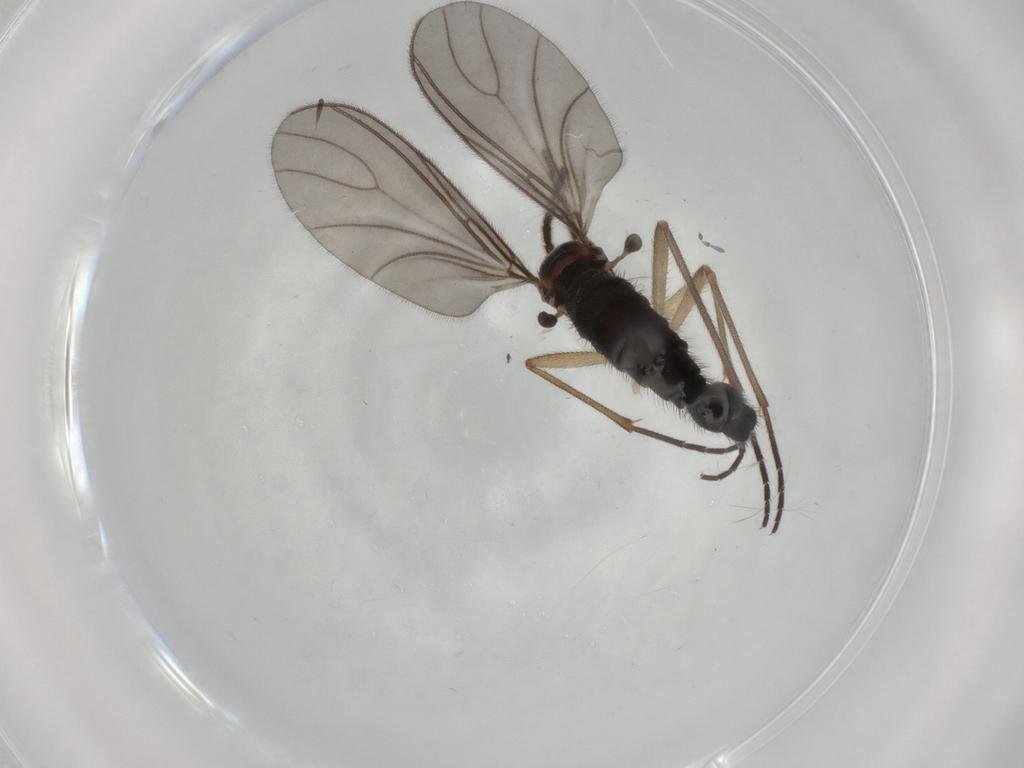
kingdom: Animalia
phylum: Arthropoda
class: Insecta
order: Diptera
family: Sciaridae
